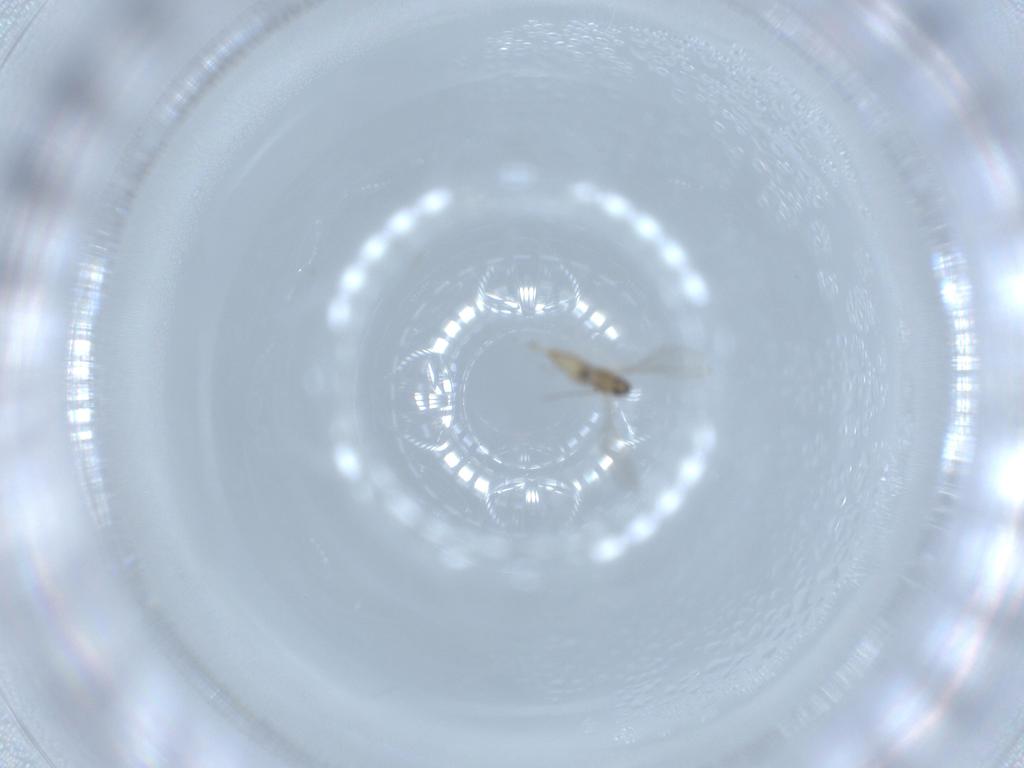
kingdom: Animalia
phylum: Arthropoda
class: Insecta
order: Diptera
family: Cecidomyiidae
